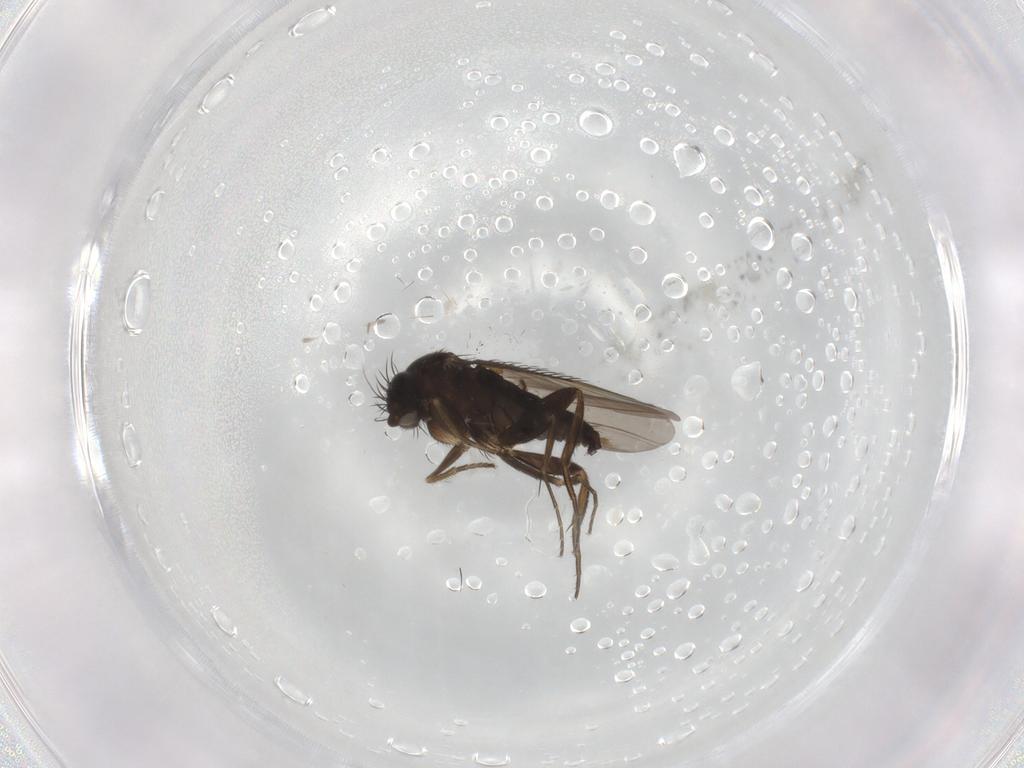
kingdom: Animalia
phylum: Arthropoda
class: Insecta
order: Diptera
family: Phoridae
